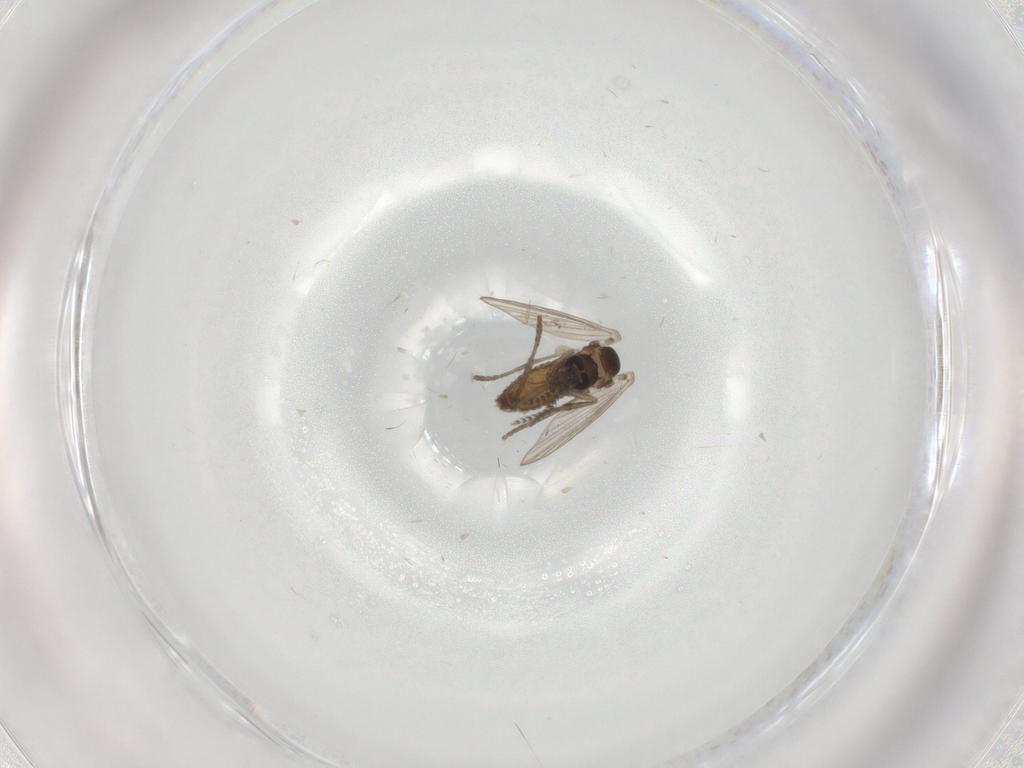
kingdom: Animalia
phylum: Arthropoda
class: Insecta
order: Diptera
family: Psychodidae
